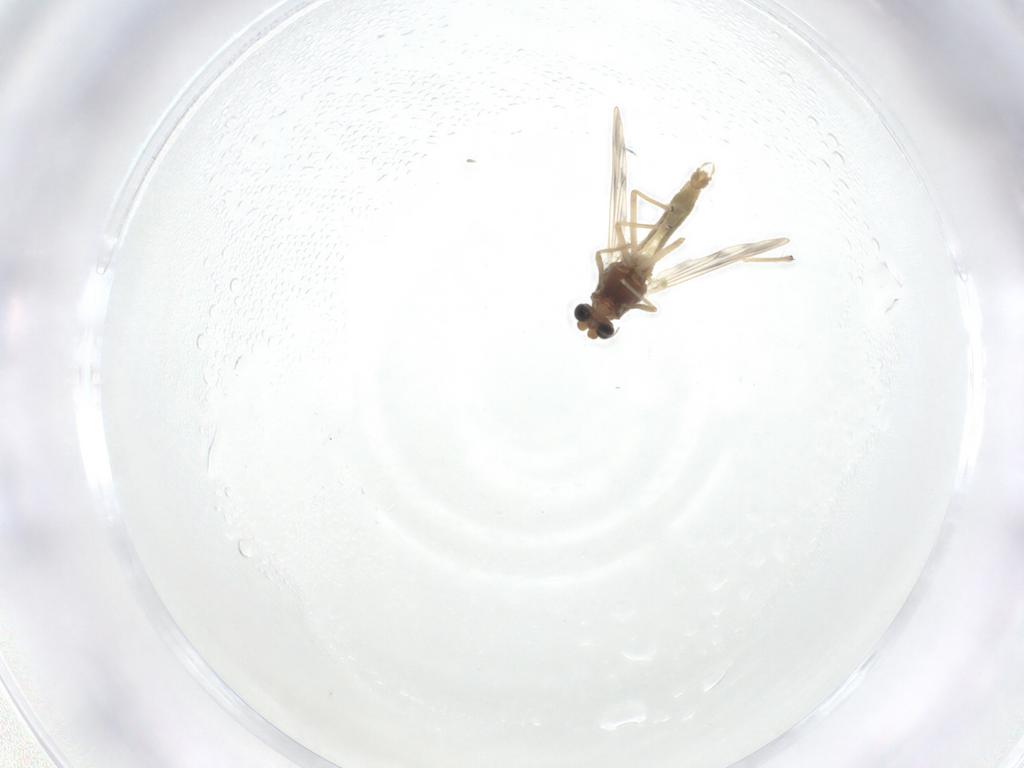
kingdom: Animalia
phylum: Arthropoda
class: Insecta
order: Diptera
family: Chironomidae
